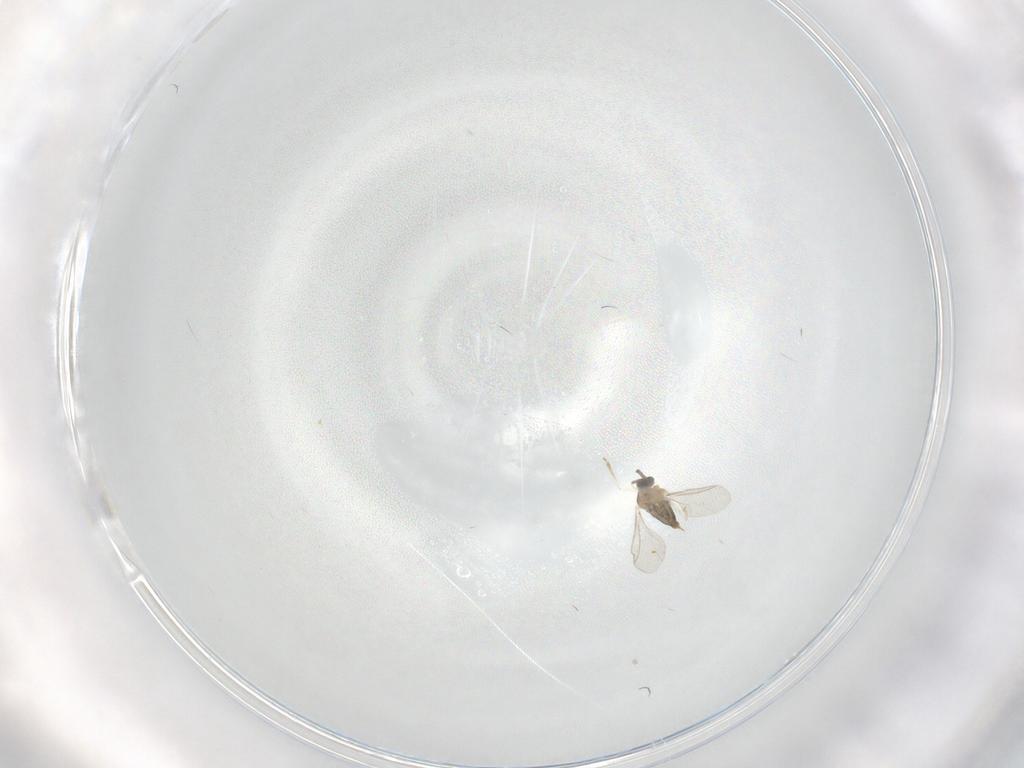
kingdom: Animalia
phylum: Arthropoda
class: Insecta
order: Diptera
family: Cecidomyiidae
